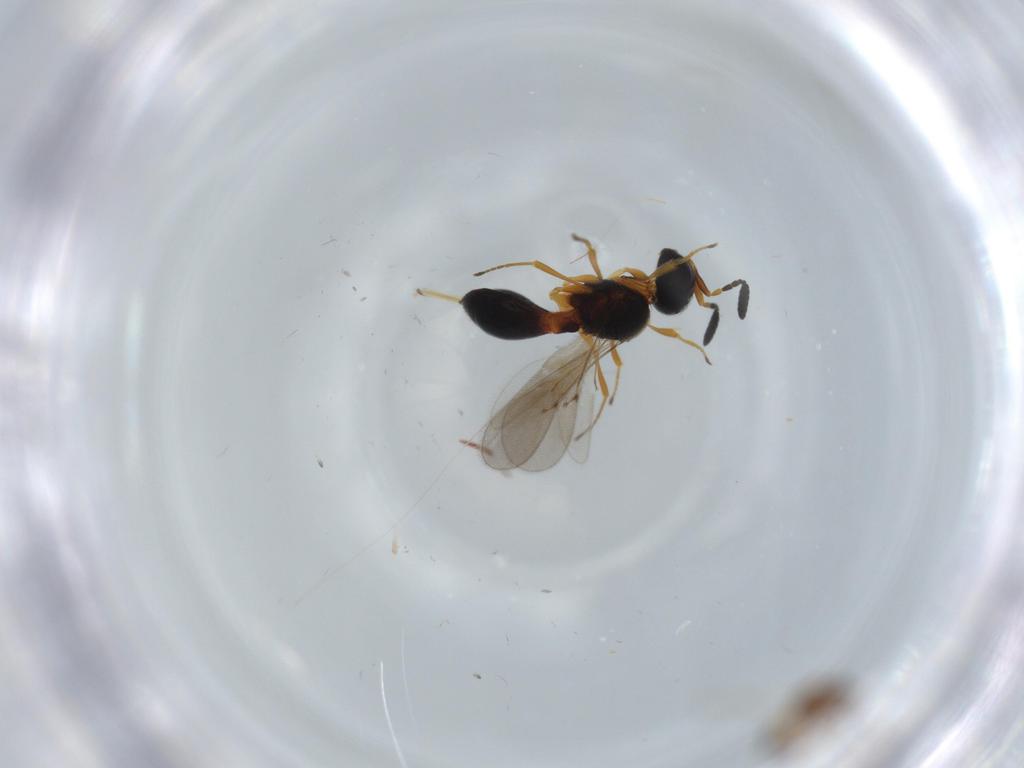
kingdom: Animalia
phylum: Arthropoda
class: Insecta
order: Hymenoptera
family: Scelionidae
